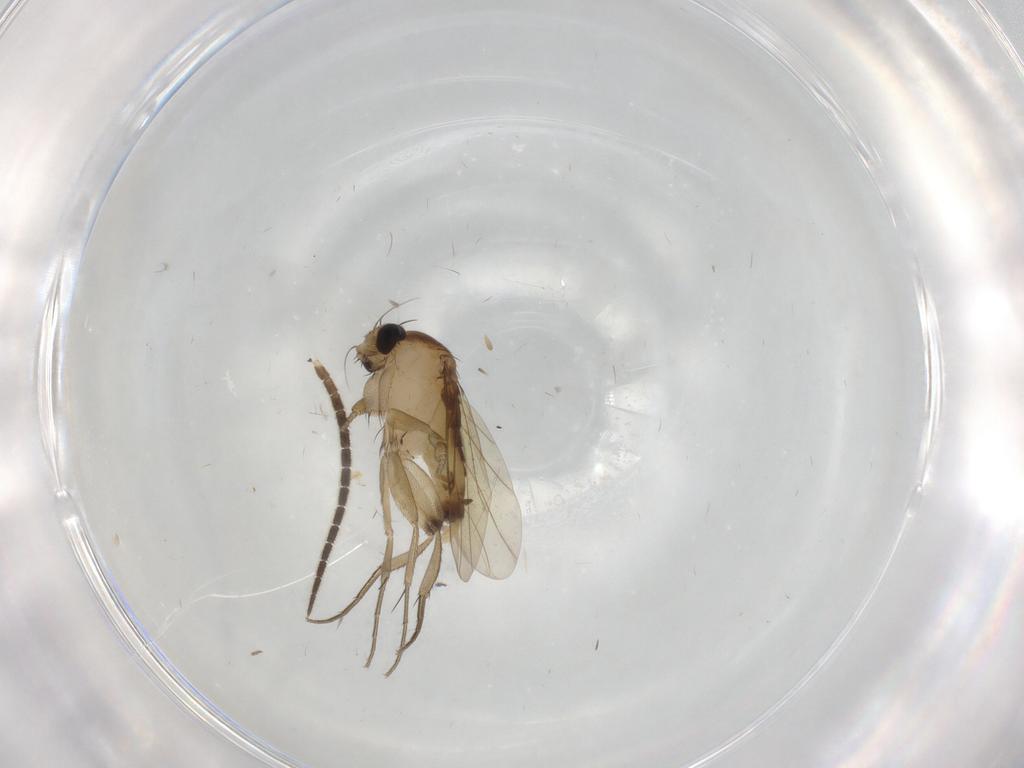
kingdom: Animalia
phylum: Arthropoda
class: Insecta
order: Diptera
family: Phoridae
